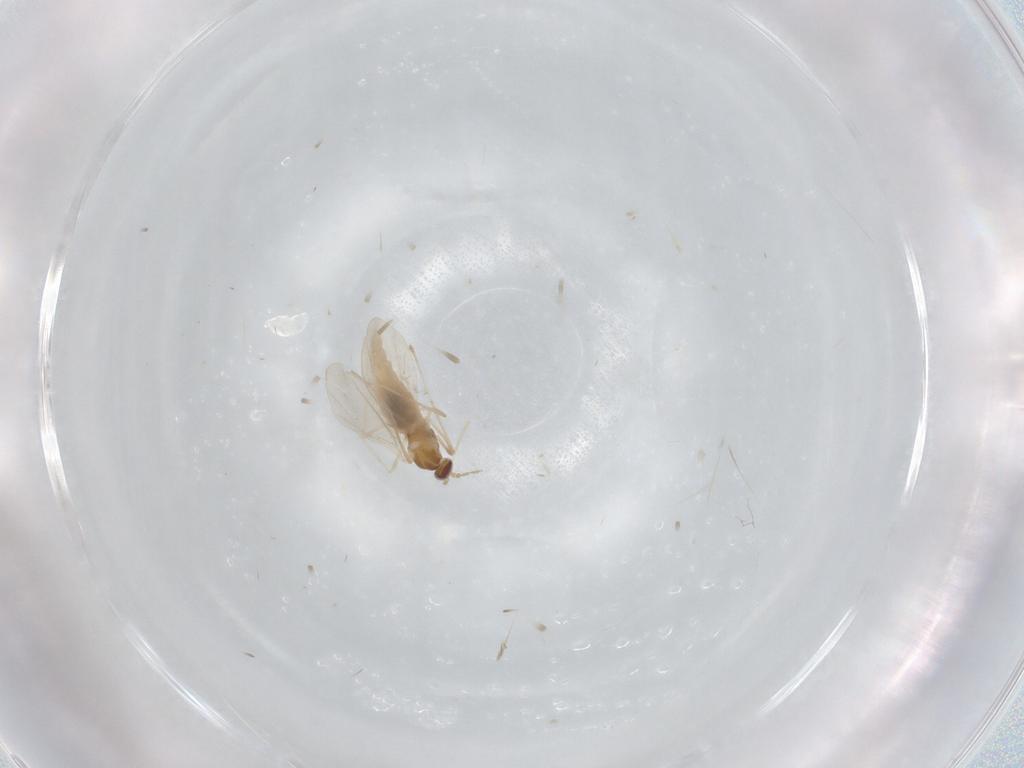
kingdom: Animalia
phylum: Arthropoda
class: Insecta
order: Diptera
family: Cecidomyiidae
